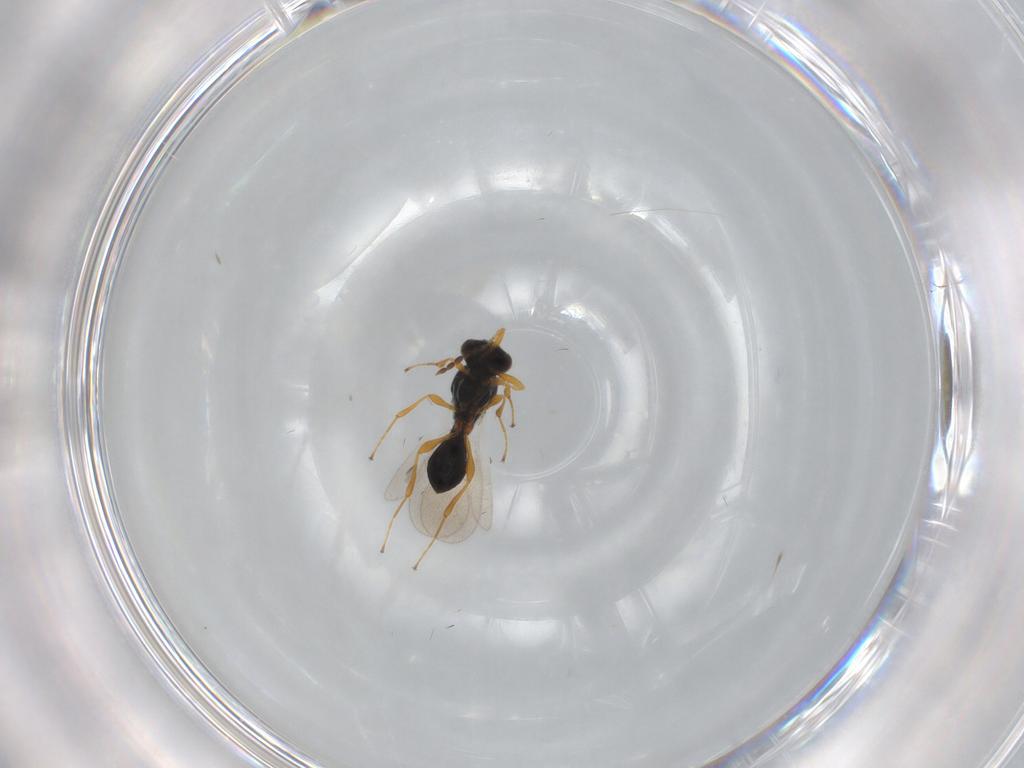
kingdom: Animalia
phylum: Arthropoda
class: Insecta
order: Hymenoptera
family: Platygastridae
